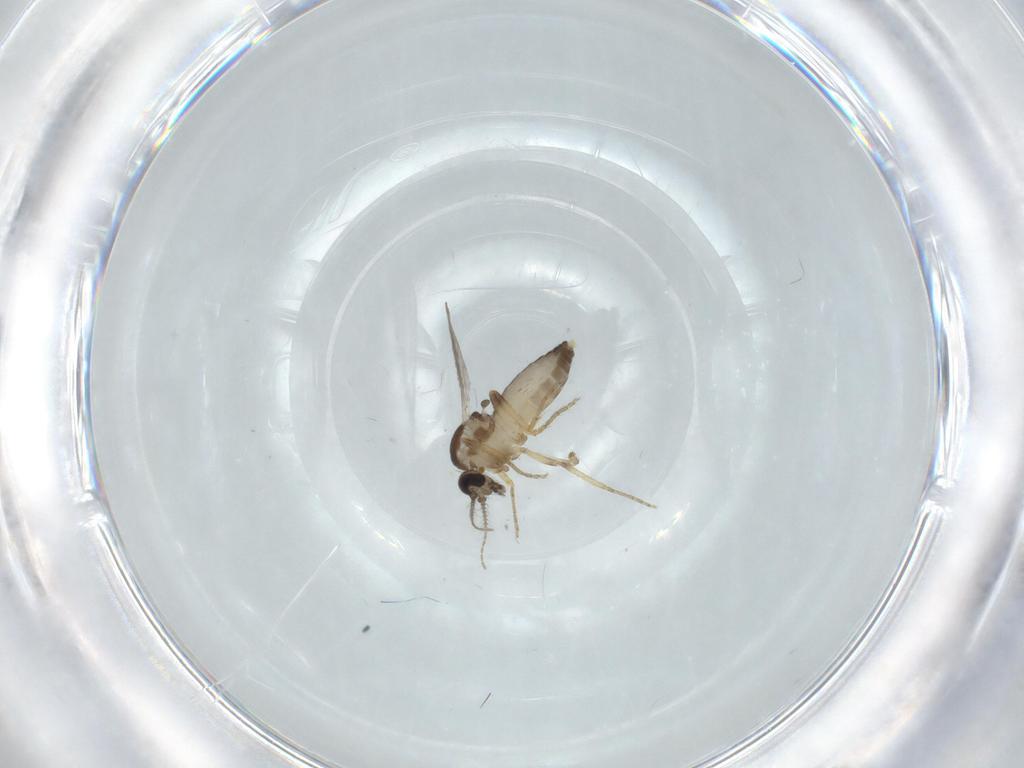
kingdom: Animalia
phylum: Arthropoda
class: Insecta
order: Diptera
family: Ceratopogonidae
